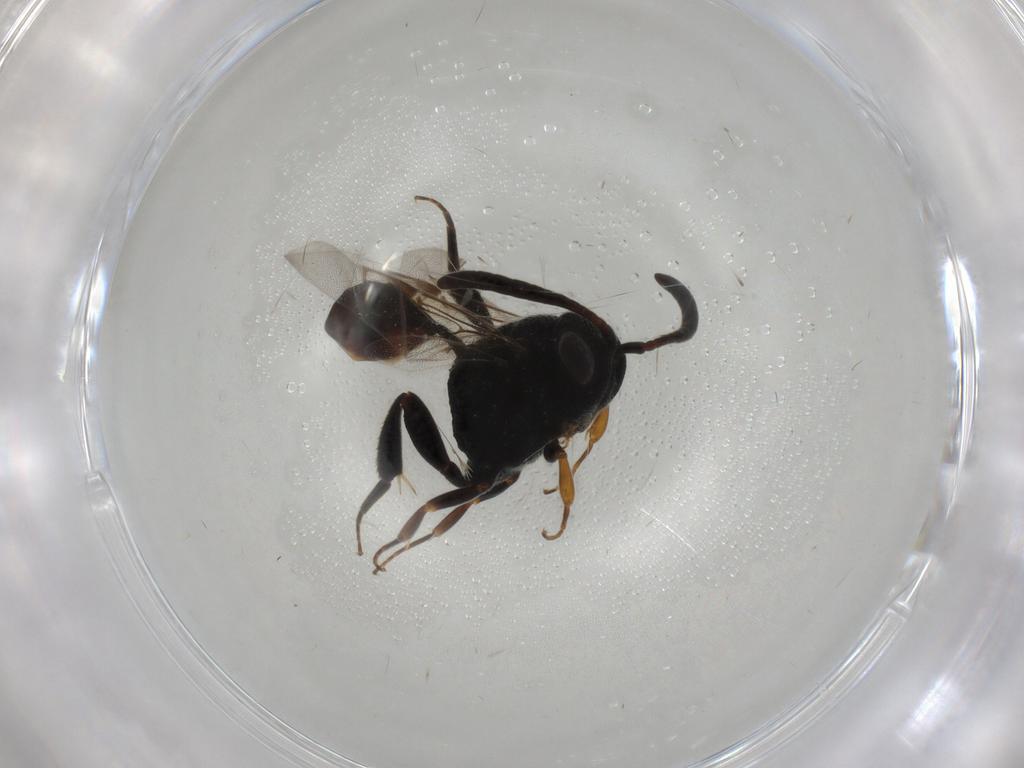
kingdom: Animalia
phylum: Arthropoda
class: Insecta
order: Hymenoptera
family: Evaniidae
